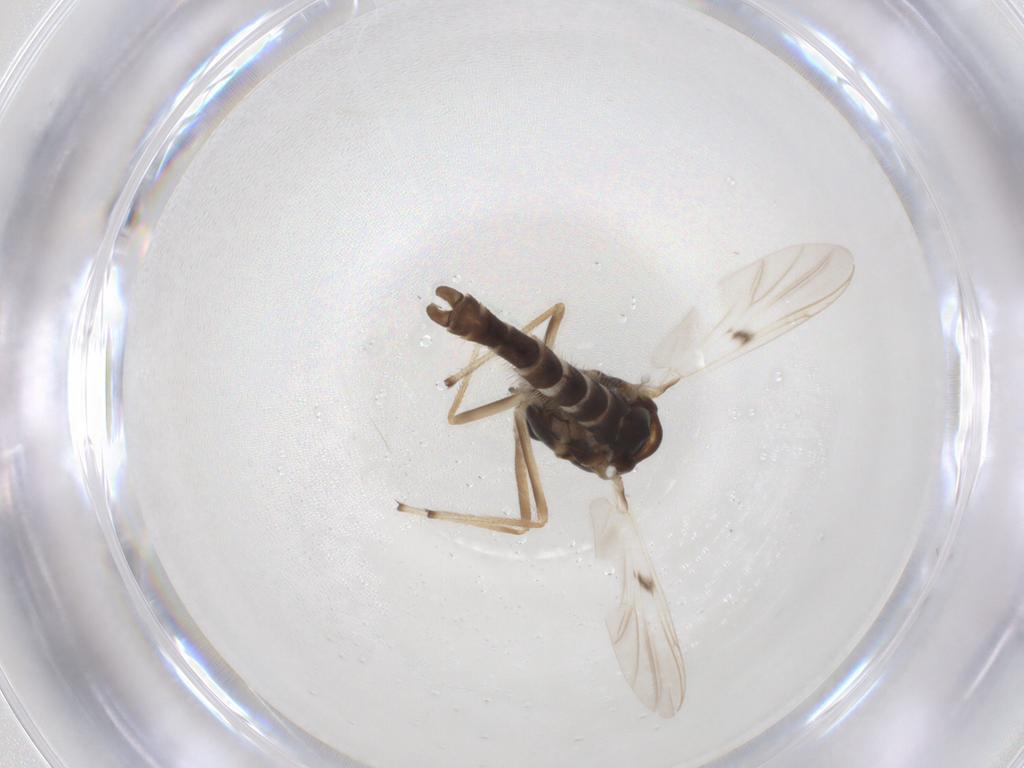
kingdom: Animalia
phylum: Arthropoda
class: Insecta
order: Diptera
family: Chironomidae
